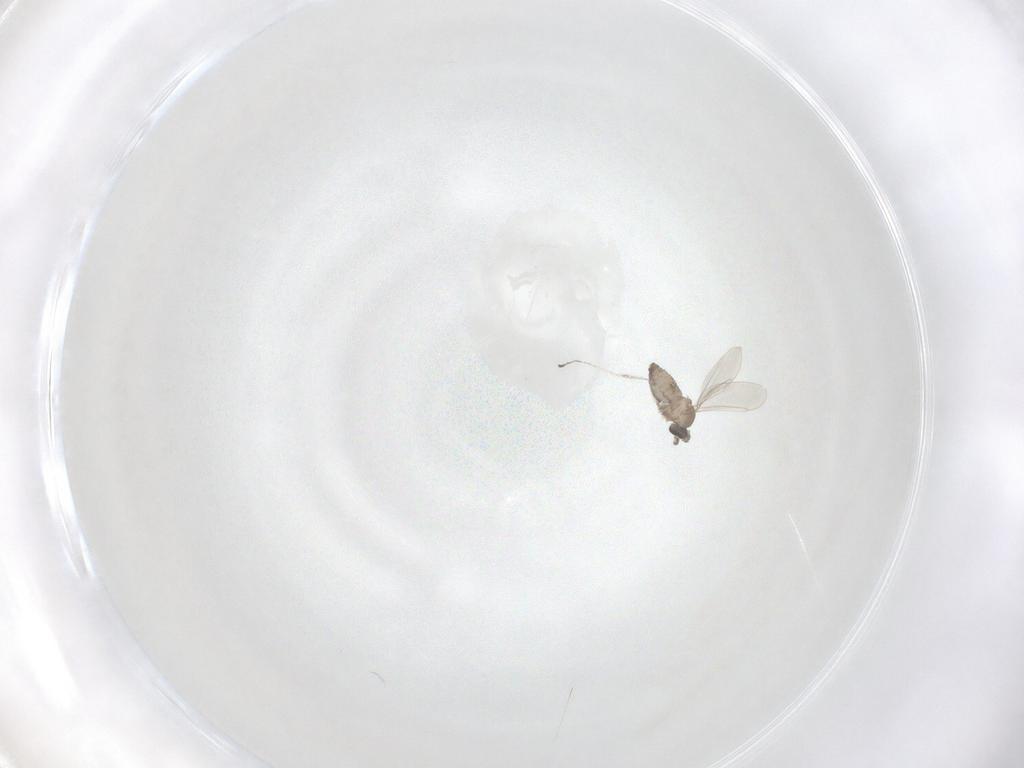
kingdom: Animalia
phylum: Arthropoda
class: Insecta
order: Diptera
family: Cecidomyiidae
